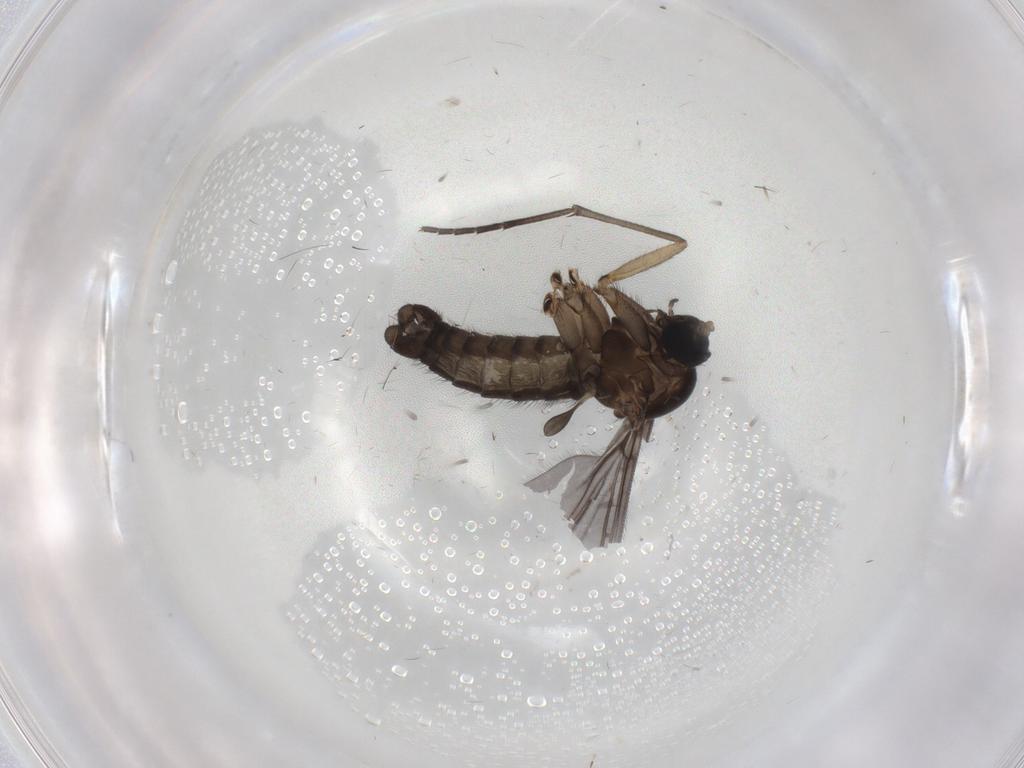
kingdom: Animalia
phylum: Arthropoda
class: Insecta
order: Diptera
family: Sciaridae
